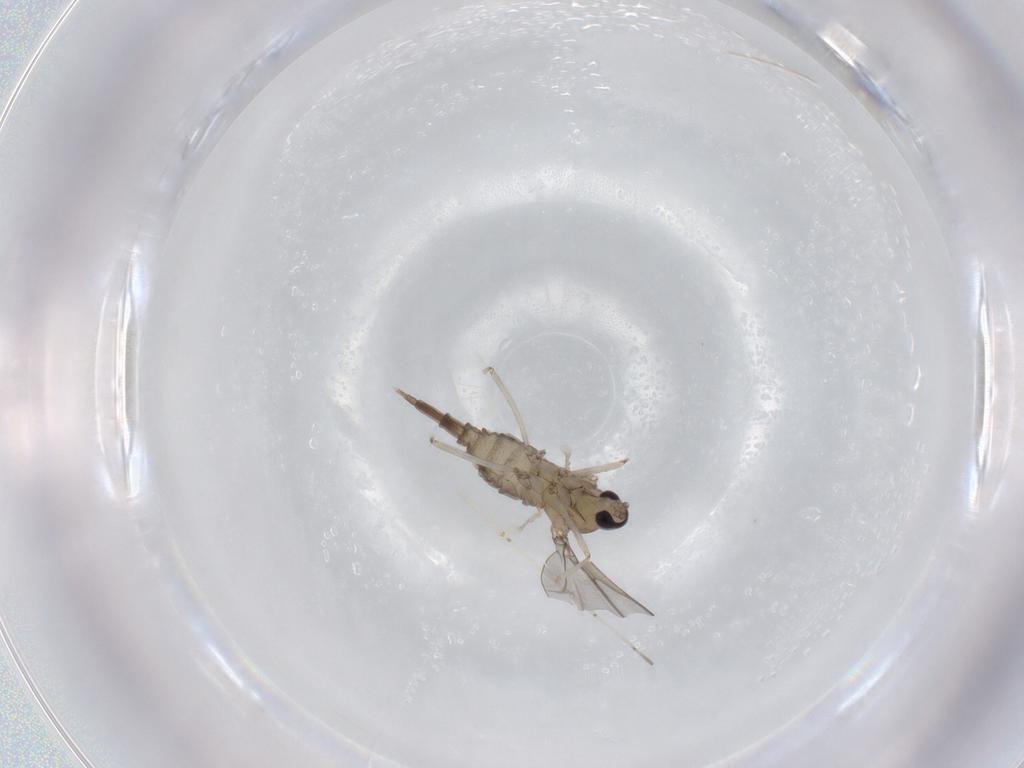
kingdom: Animalia
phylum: Arthropoda
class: Insecta
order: Diptera
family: Cecidomyiidae
